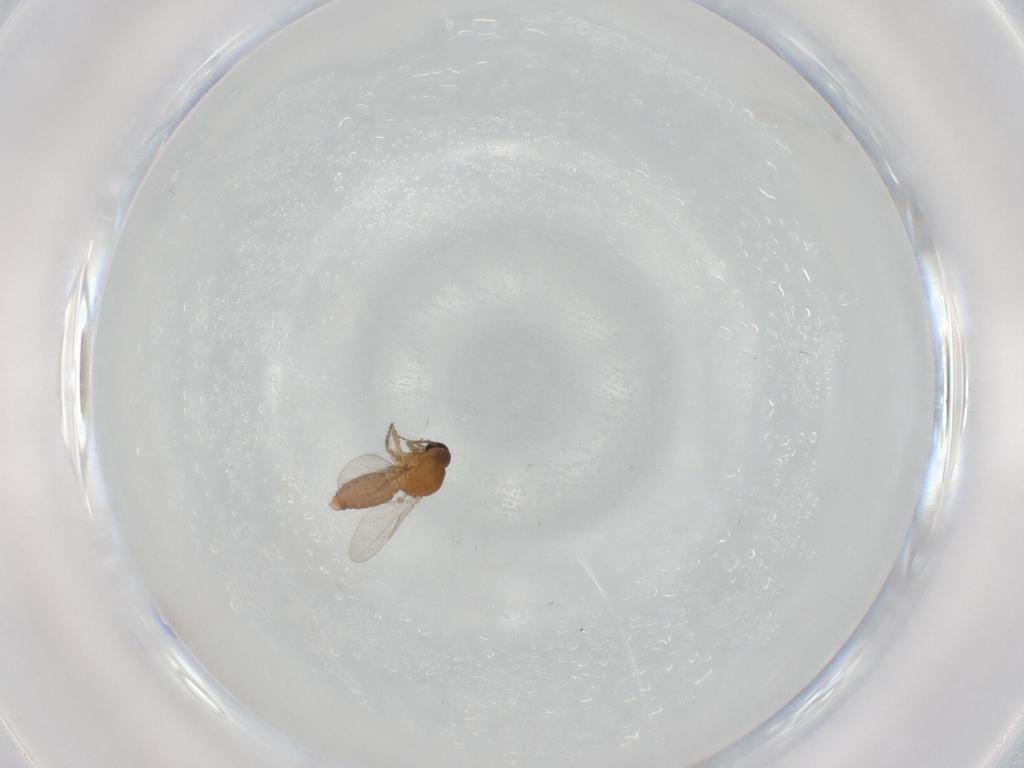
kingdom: Animalia
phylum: Arthropoda
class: Insecta
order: Diptera
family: Ceratopogonidae
